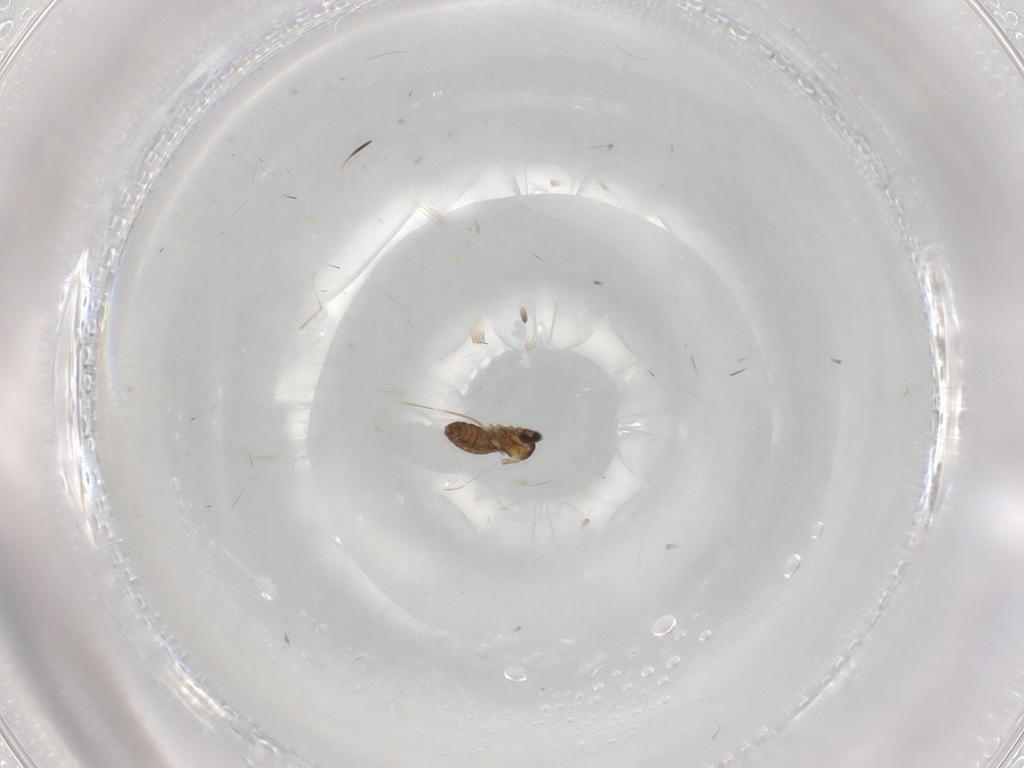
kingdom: Animalia
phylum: Arthropoda
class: Insecta
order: Diptera
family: Cecidomyiidae
